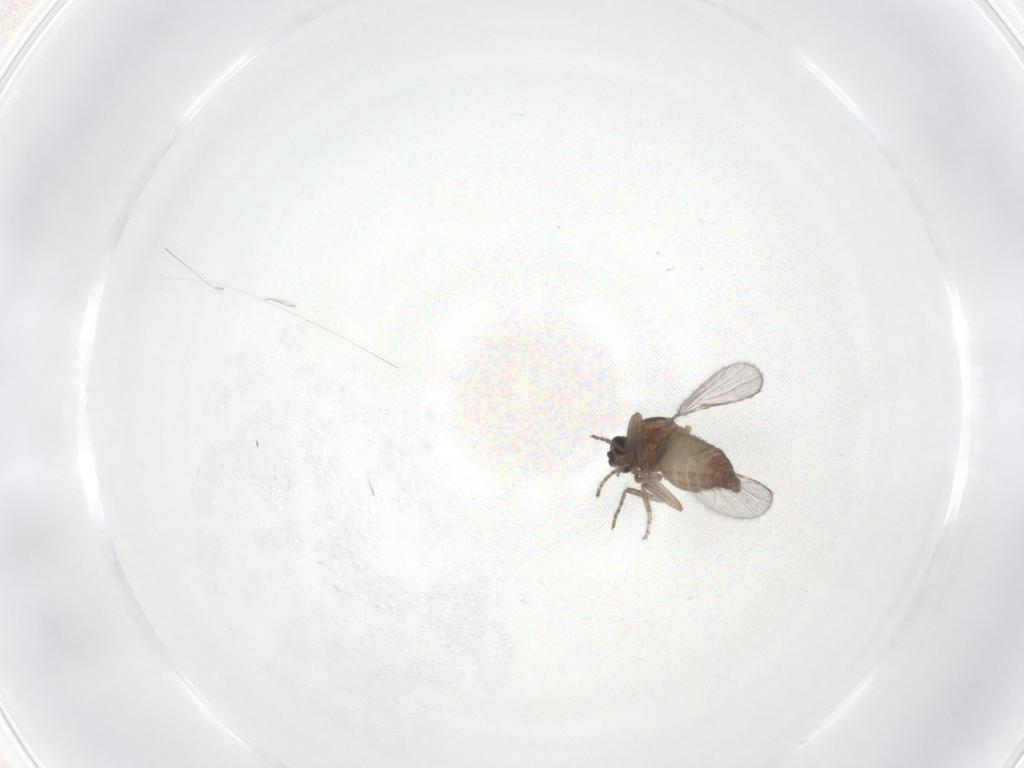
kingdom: Animalia
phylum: Arthropoda
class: Insecta
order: Diptera
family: Cecidomyiidae
